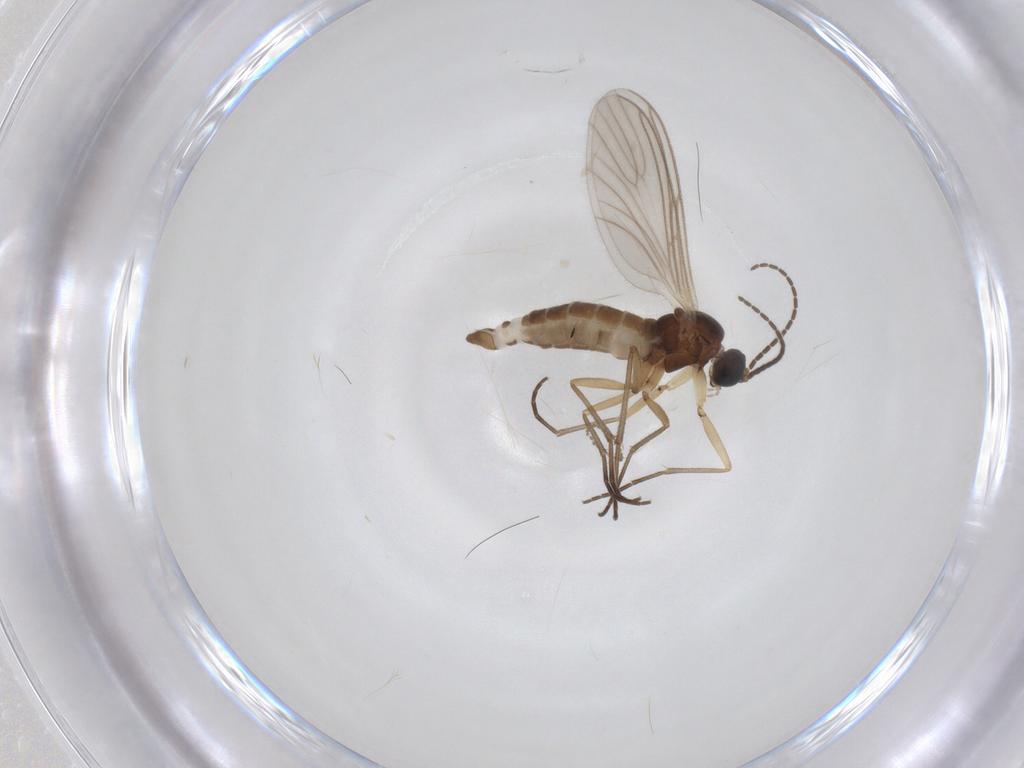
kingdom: Animalia
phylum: Arthropoda
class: Insecta
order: Diptera
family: Sciaridae
